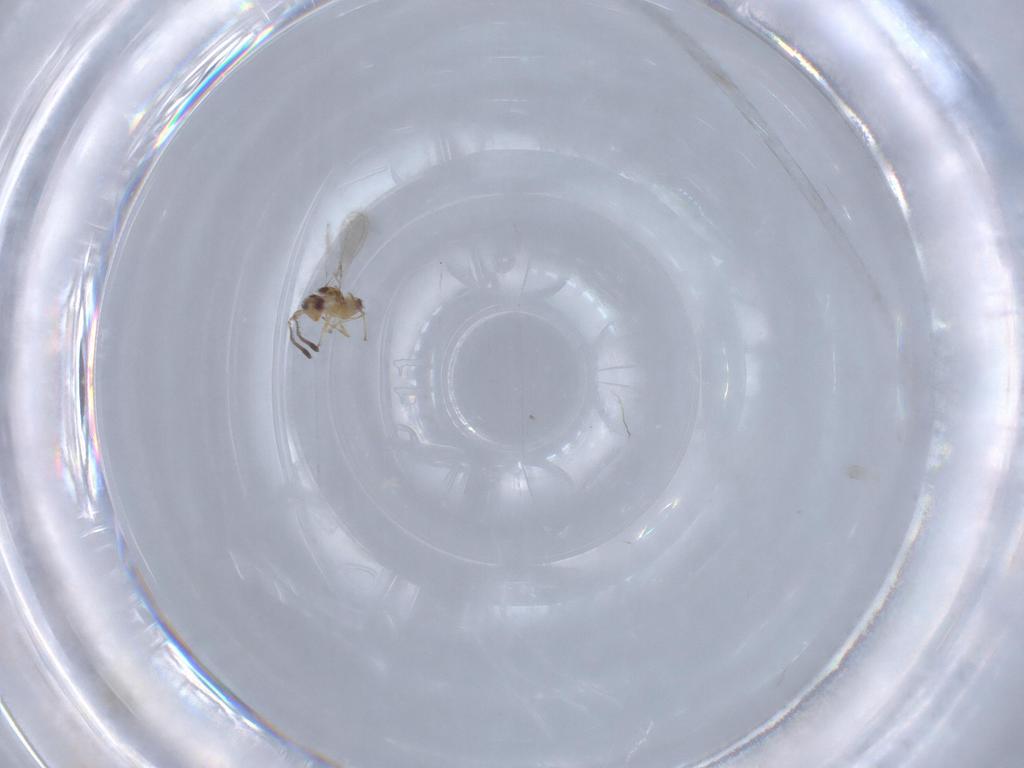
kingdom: Animalia
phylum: Arthropoda
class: Insecta
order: Hymenoptera
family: Mymaridae
